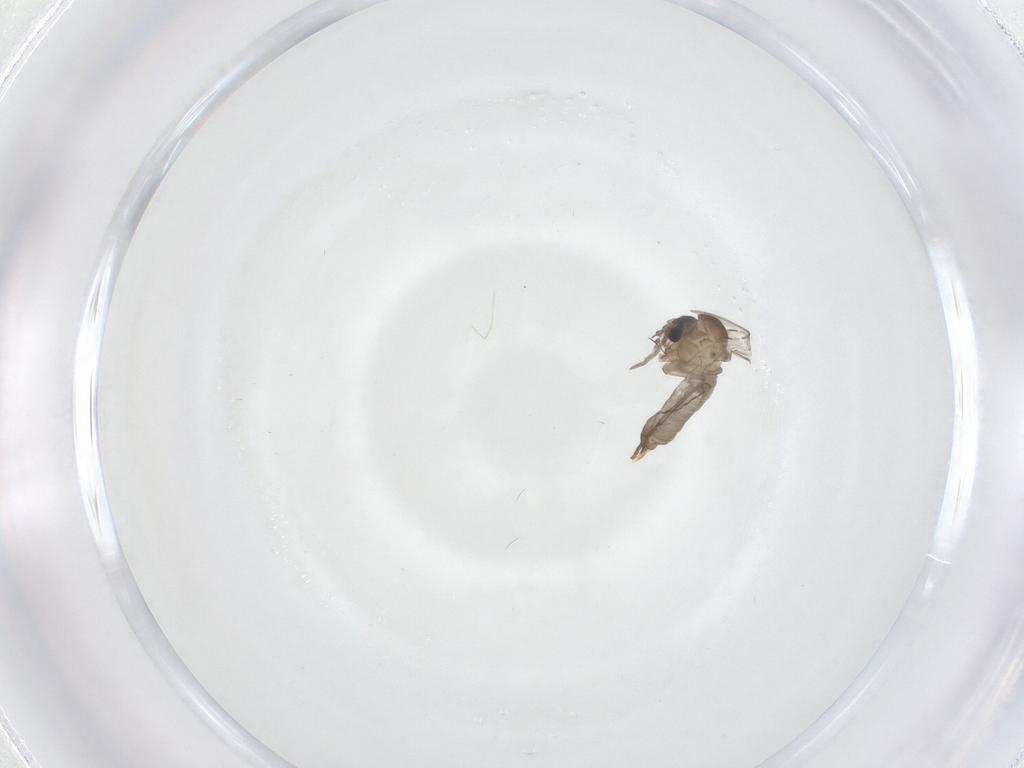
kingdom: Animalia
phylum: Arthropoda
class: Insecta
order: Diptera
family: Psychodidae
